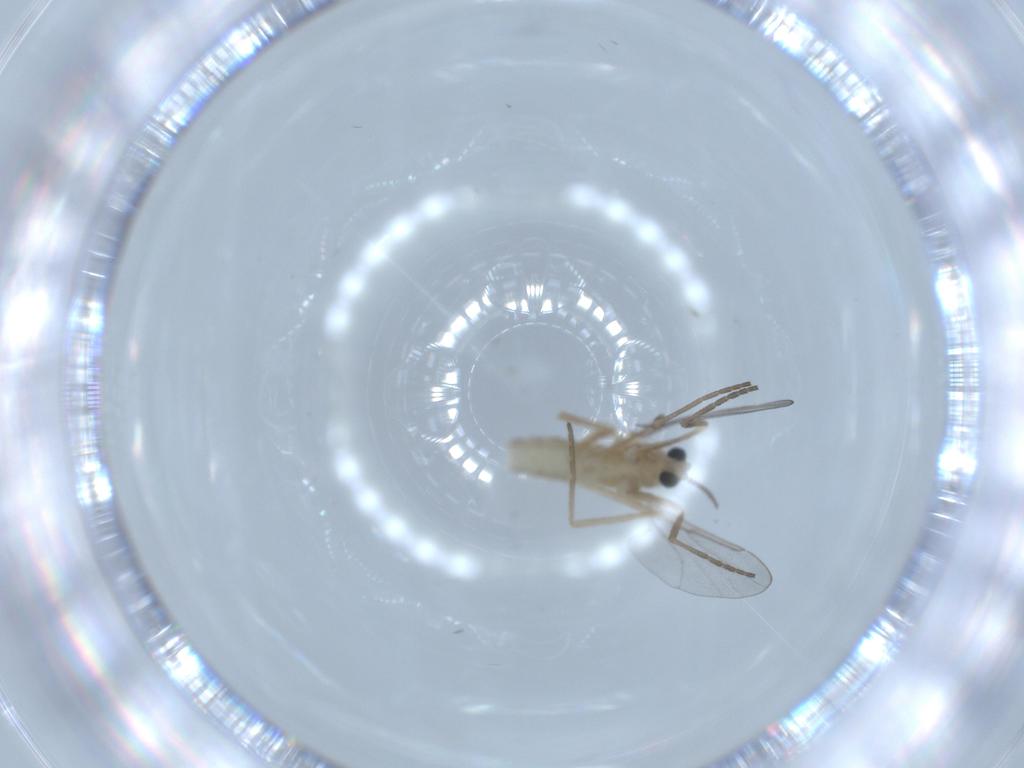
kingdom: Animalia
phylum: Arthropoda
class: Insecta
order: Diptera
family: Cecidomyiidae
